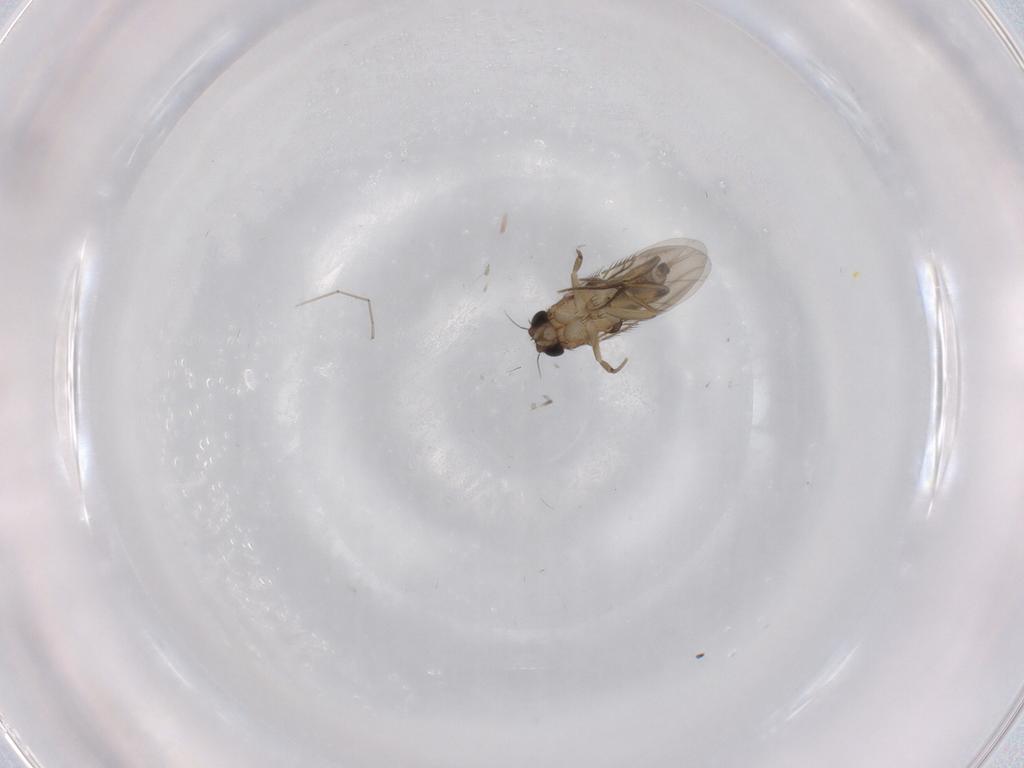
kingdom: Animalia
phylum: Arthropoda
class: Insecta
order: Diptera
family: Phoridae
